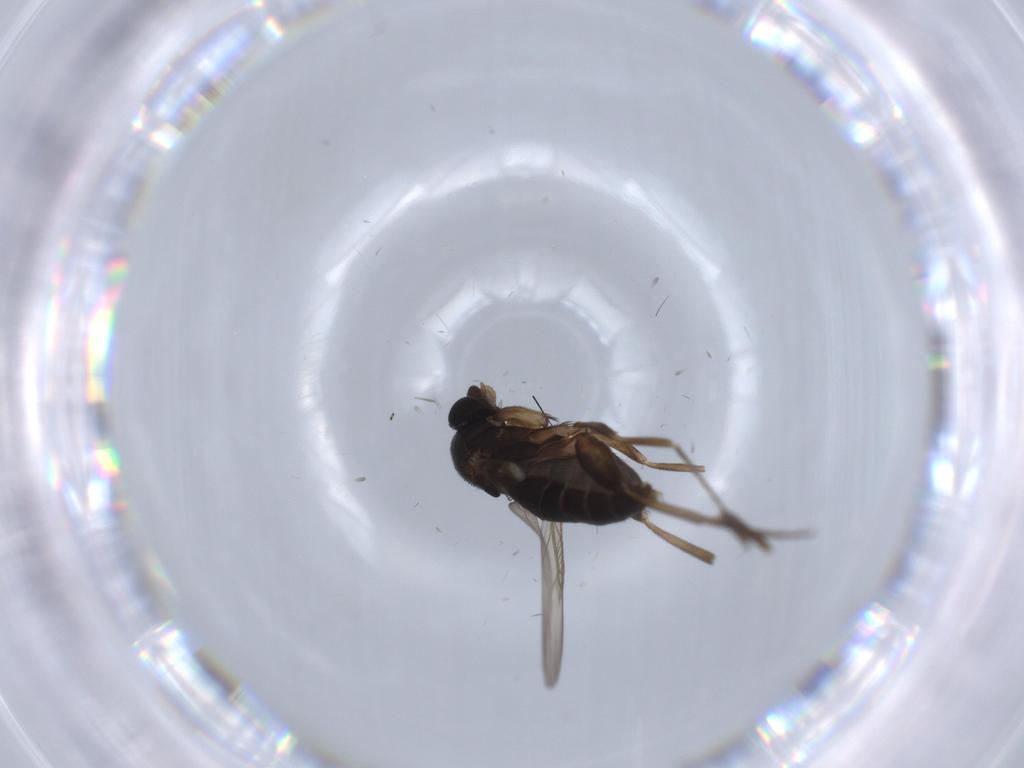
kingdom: Animalia
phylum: Arthropoda
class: Insecta
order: Diptera
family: Phoridae
